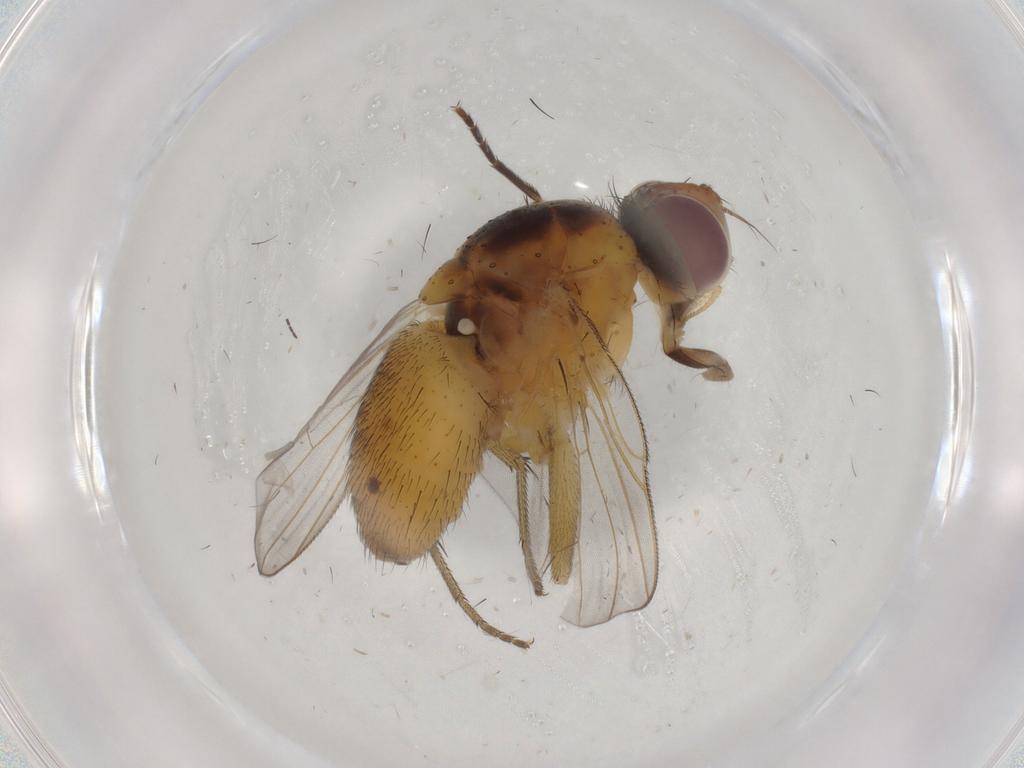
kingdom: Animalia
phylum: Arthropoda
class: Insecta
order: Diptera
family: Muscidae
